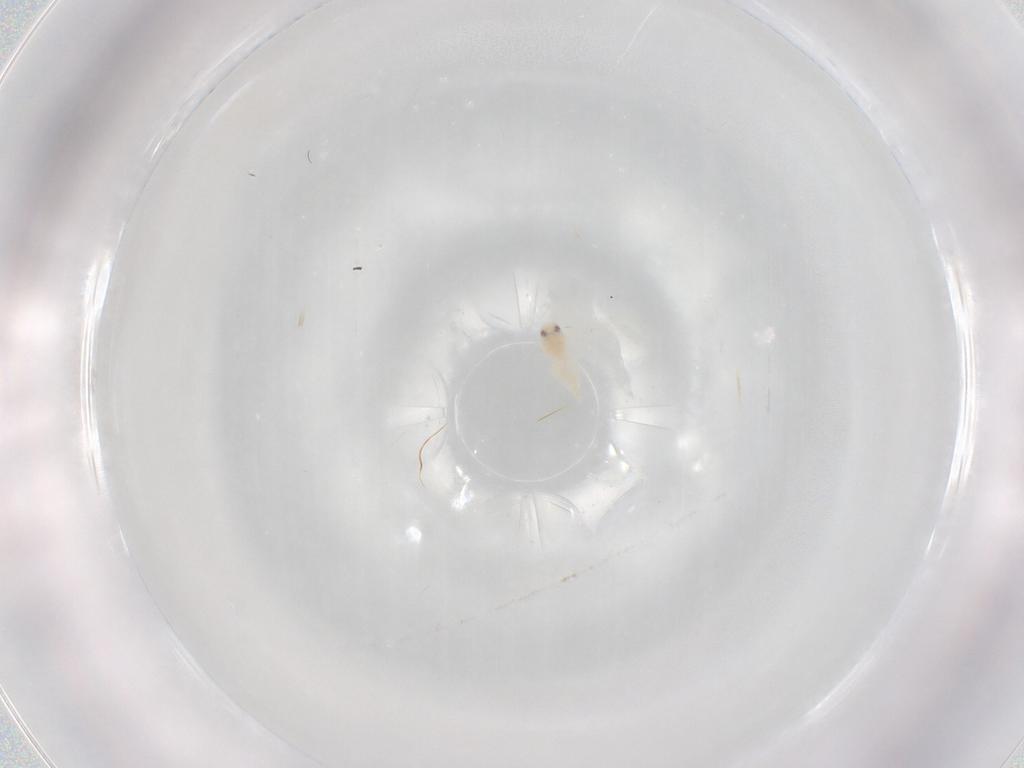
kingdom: Animalia
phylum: Arthropoda
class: Insecta
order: Hemiptera
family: Aleyrodidae
